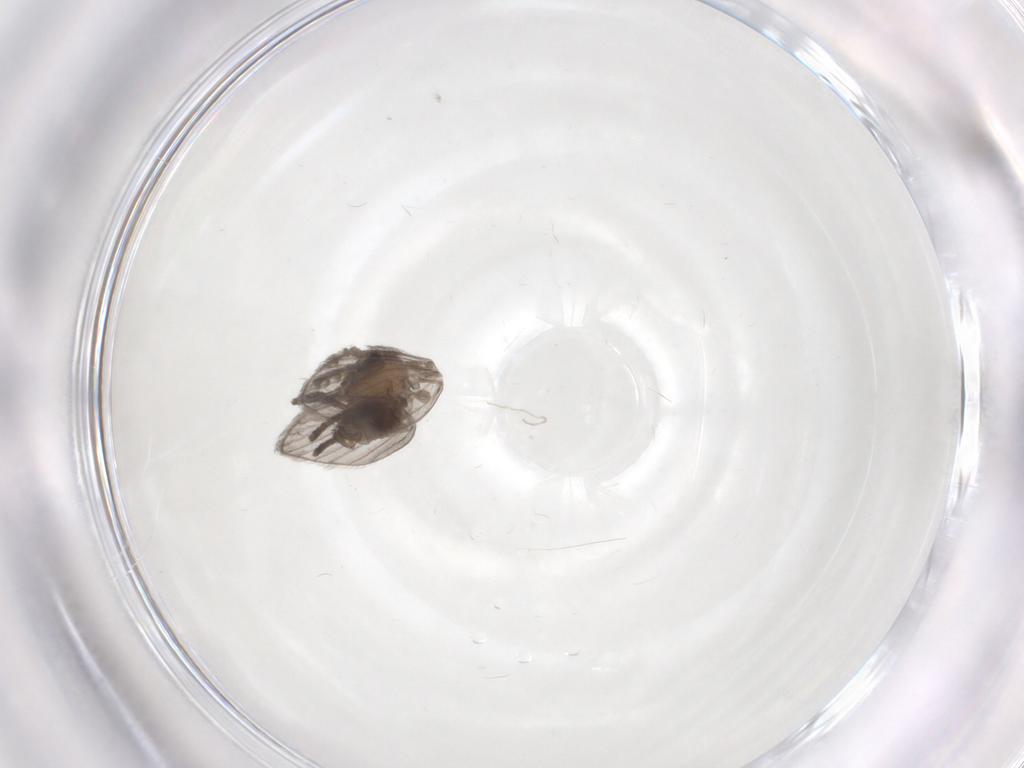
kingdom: Animalia
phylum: Arthropoda
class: Insecta
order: Diptera
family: Psychodidae
